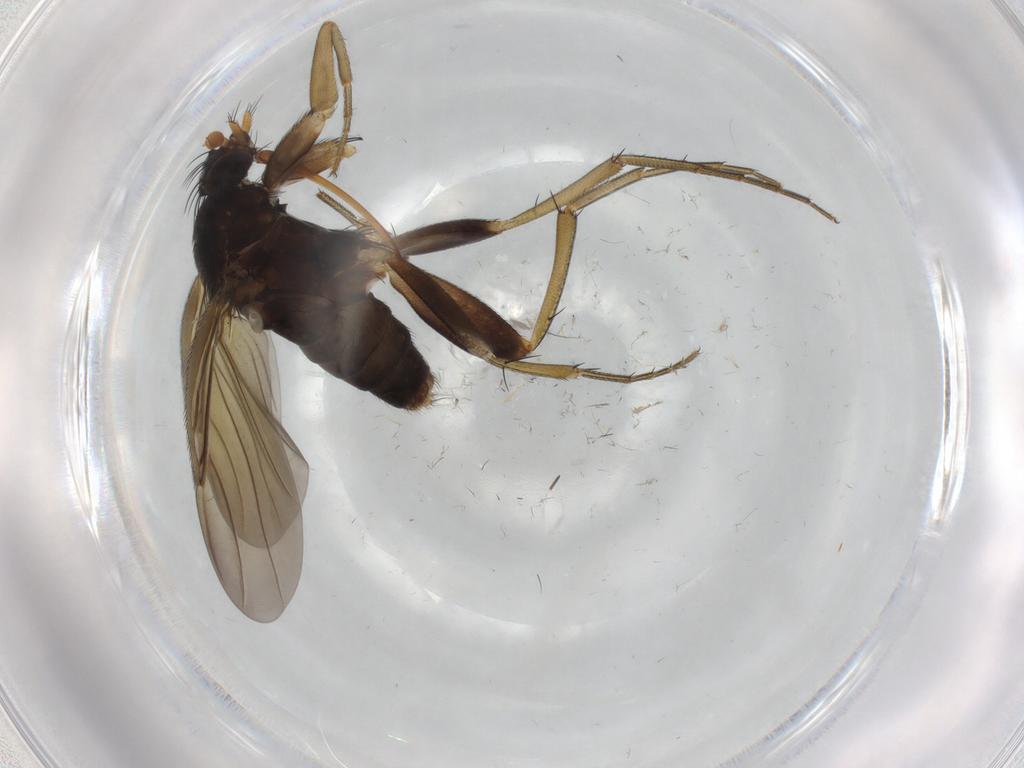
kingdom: Animalia
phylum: Arthropoda
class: Insecta
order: Diptera
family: Phoridae
